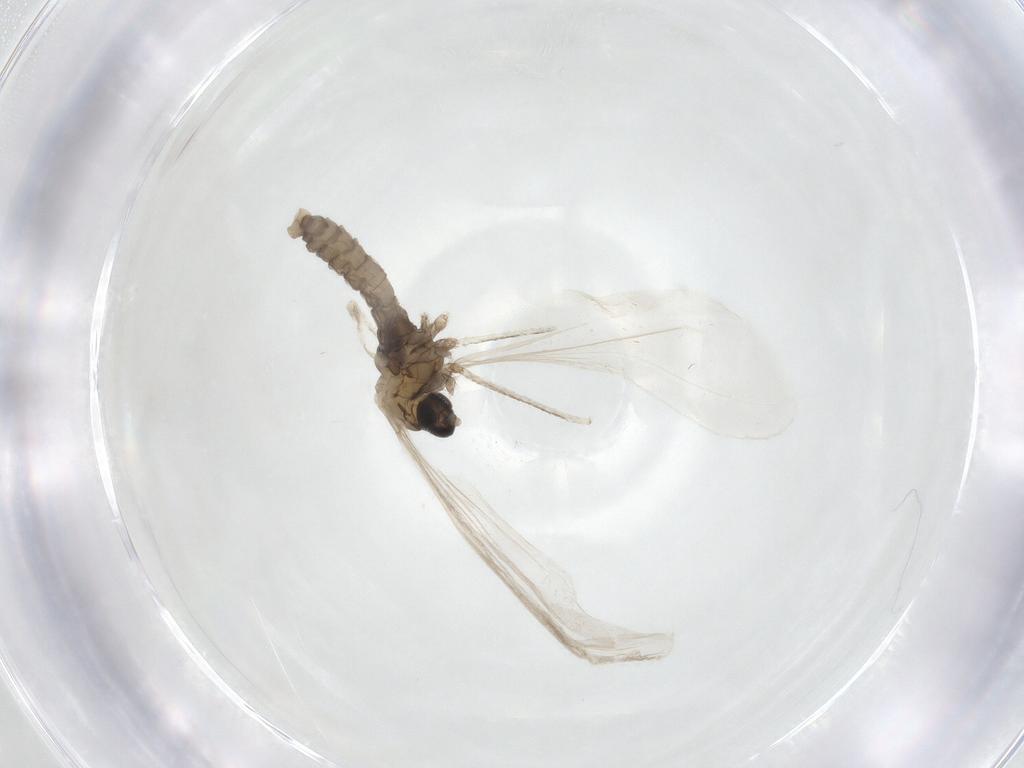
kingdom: Animalia
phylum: Arthropoda
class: Insecta
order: Diptera
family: Cecidomyiidae
